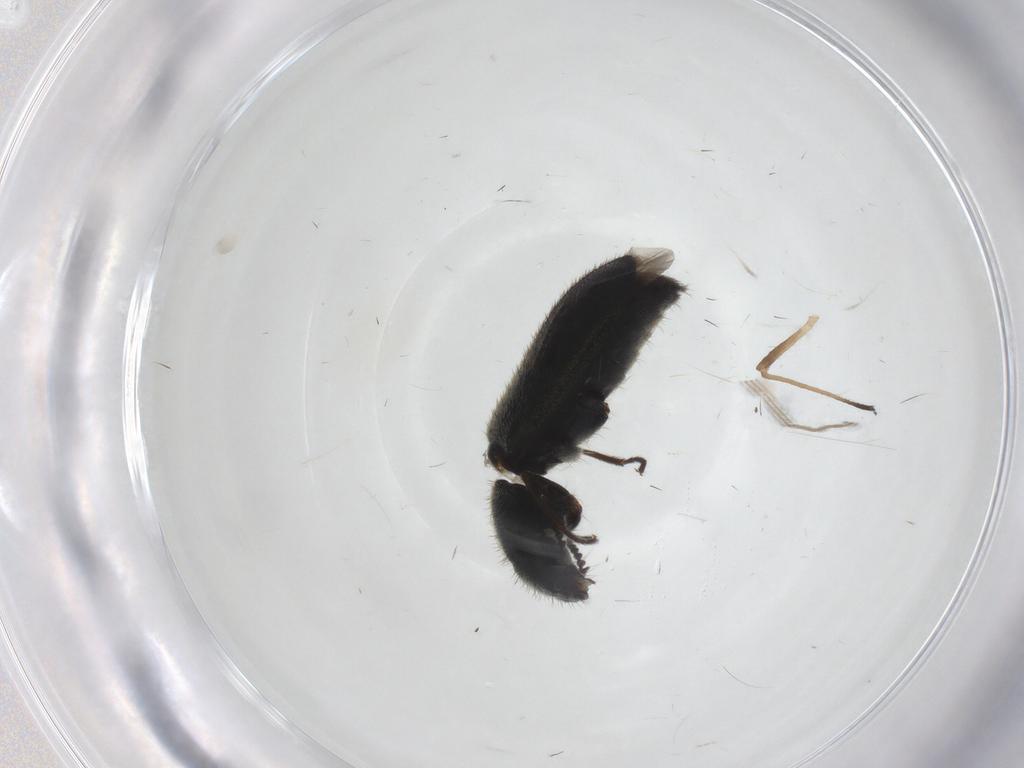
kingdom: Animalia
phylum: Arthropoda
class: Insecta
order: Coleoptera
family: Melyridae
